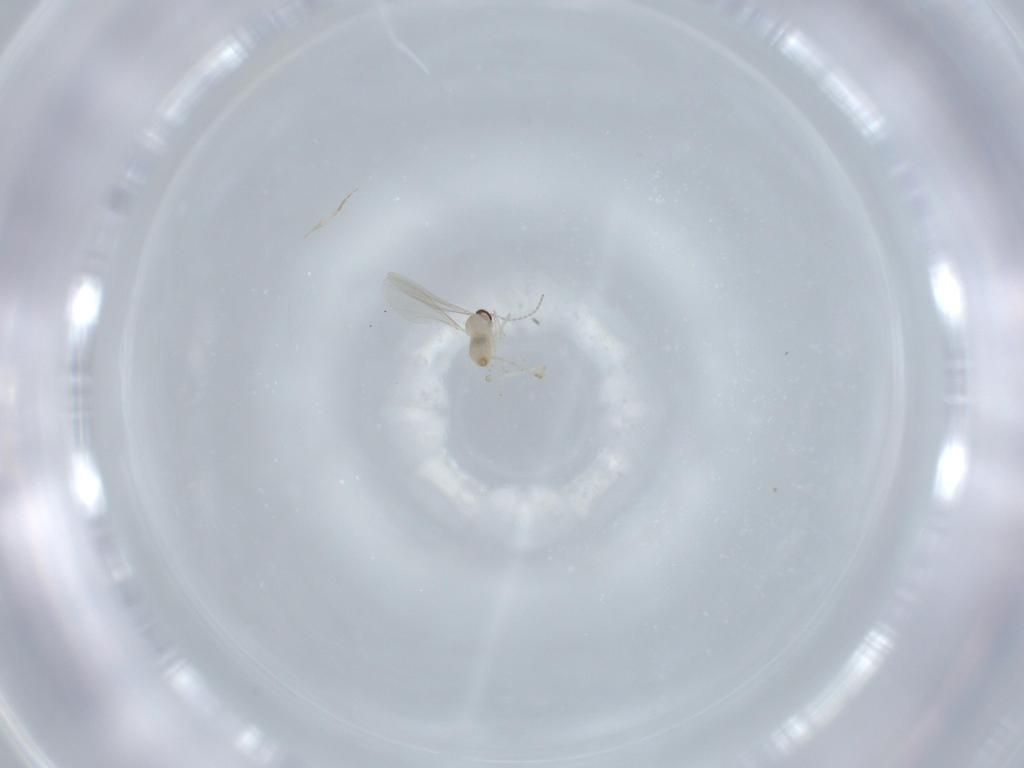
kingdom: Animalia
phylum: Arthropoda
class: Insecta
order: Diptera
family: Cecidomyiidae
